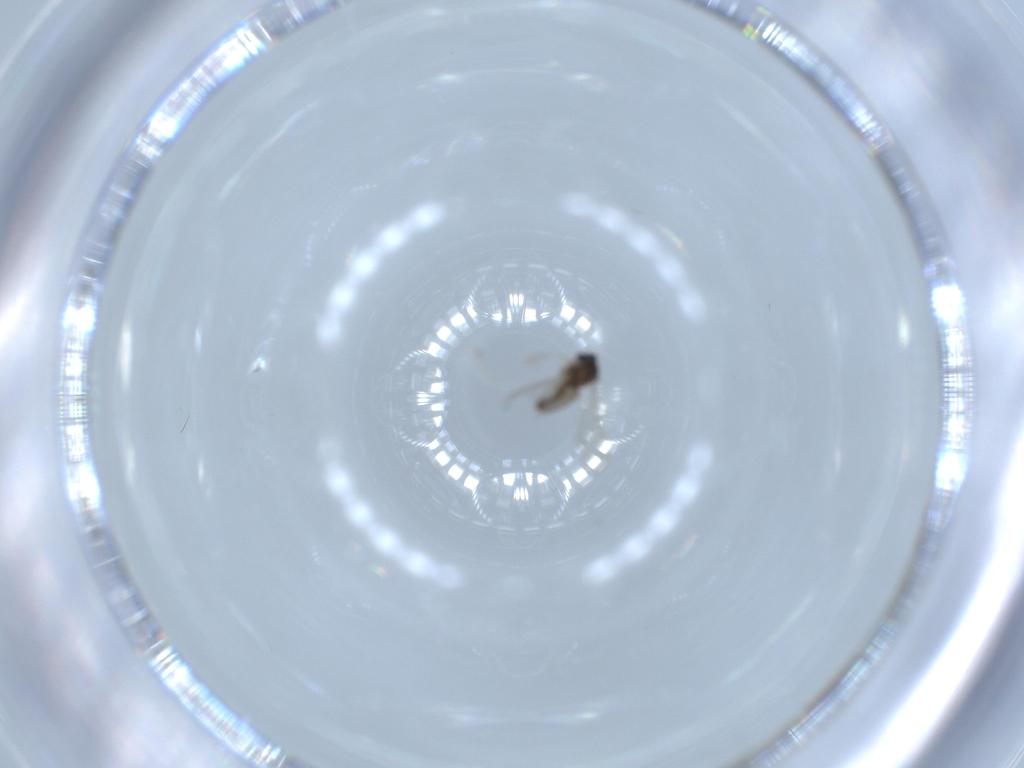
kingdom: Animalia
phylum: Arthropoda
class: Insecta
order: Diptera
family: Cecidomyiidae
